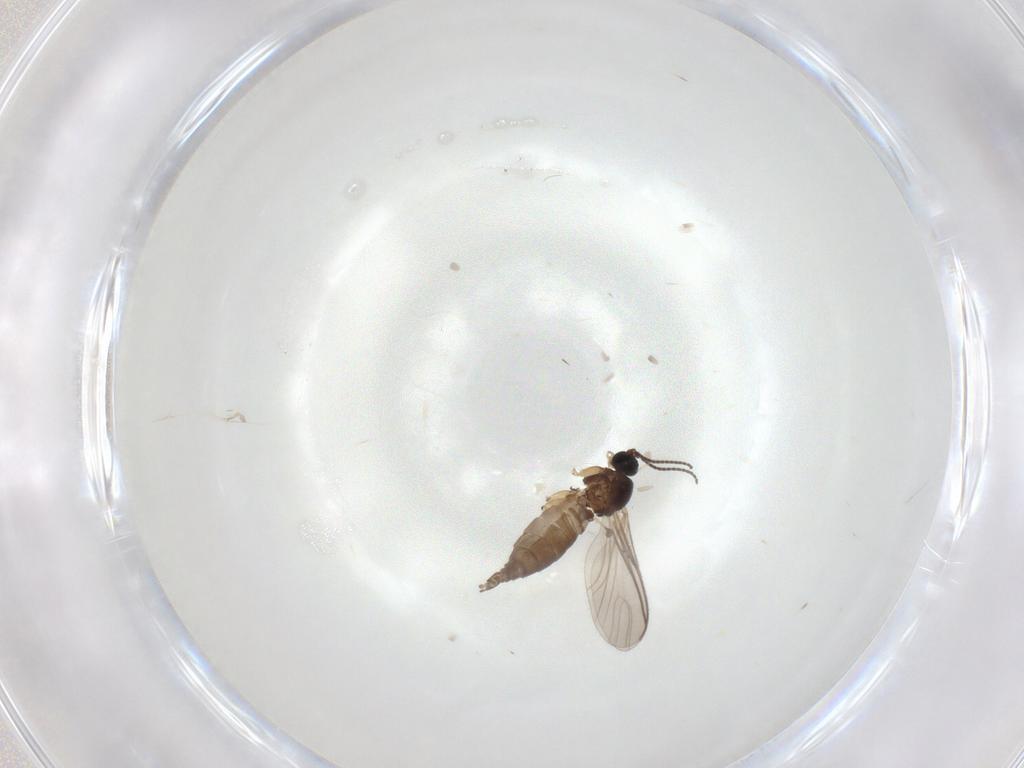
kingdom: Animalia
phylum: Arthropoda
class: Insecta
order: Diptera
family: Sciaridae
